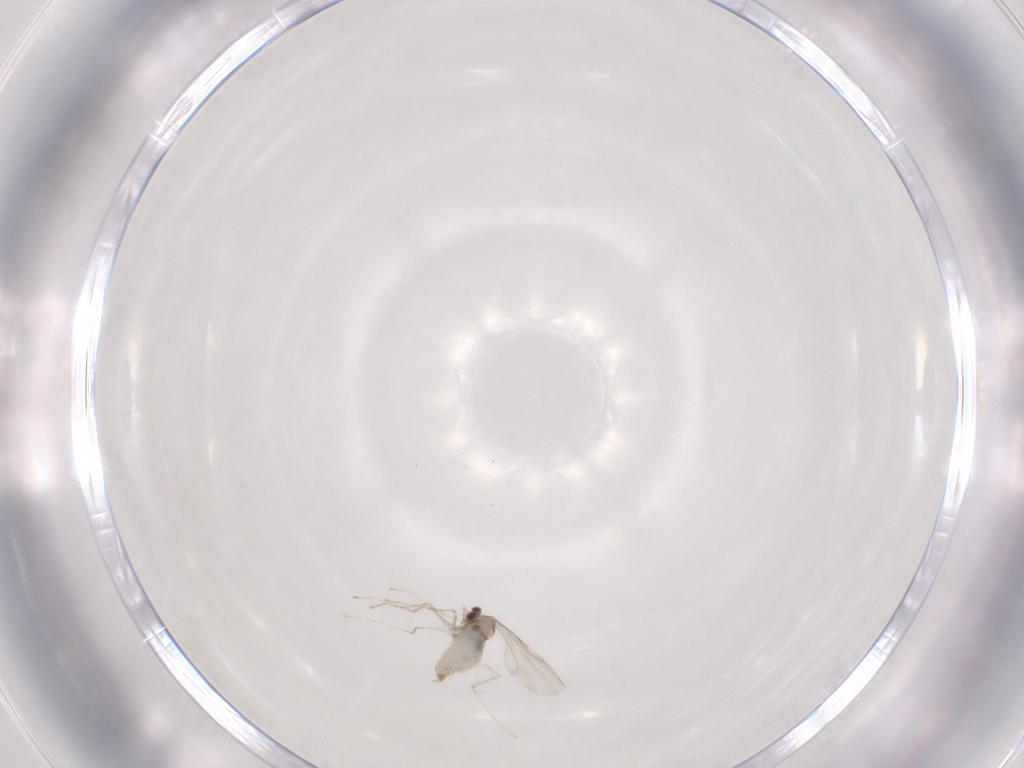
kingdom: Animalia
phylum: Arthropoda
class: Insecta
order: Diptera
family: Cecidomyiidae
